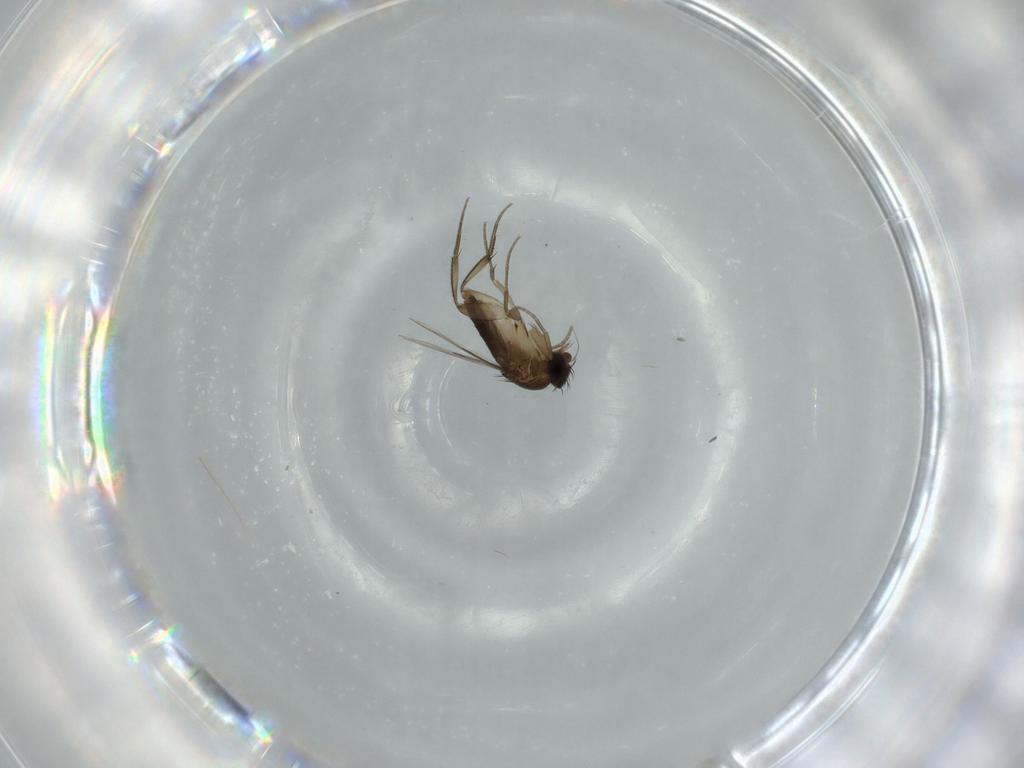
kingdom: Animalia
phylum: Arthropoda
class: Insecta
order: Diptera
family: Phoridae
